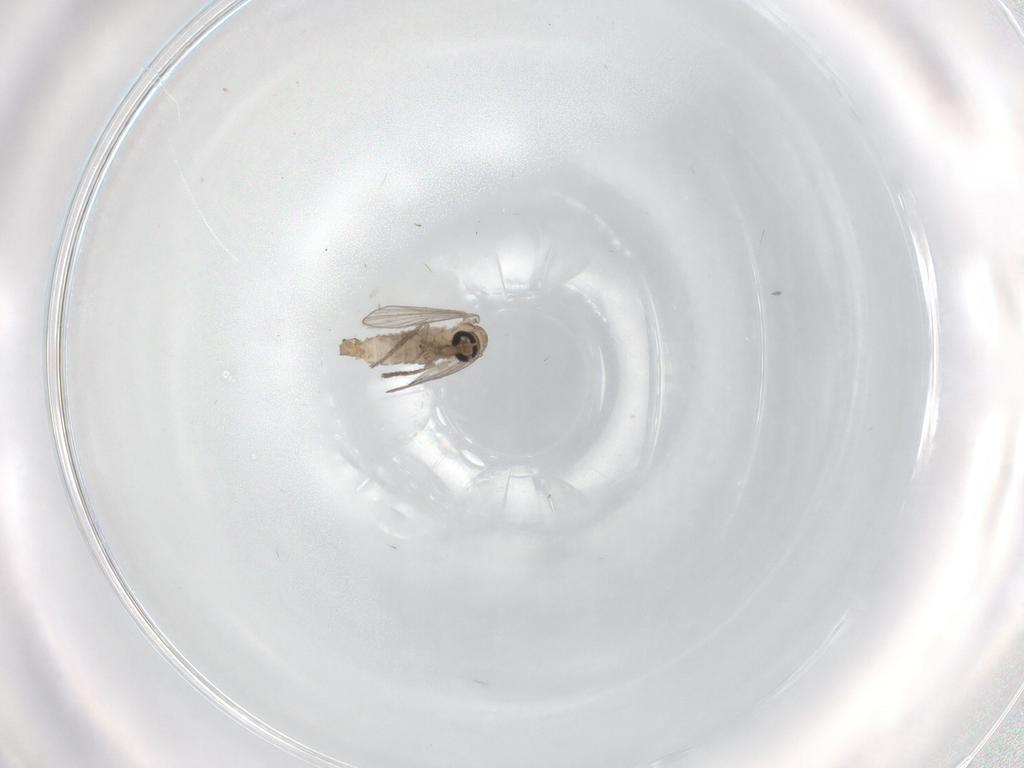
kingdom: Animalia
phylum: Arthropoda
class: Insecta
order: Diptera
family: Psychodidae
